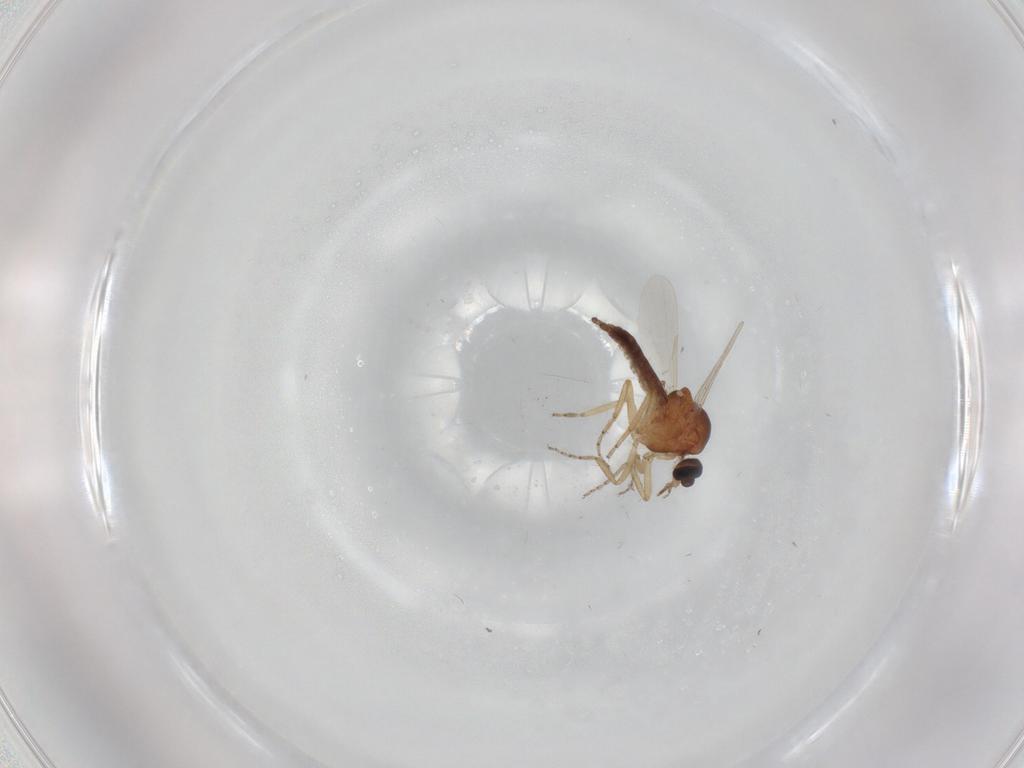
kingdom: Animalia
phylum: Arthropoda
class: Insecta
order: Diptera
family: Ceratopogonidae
